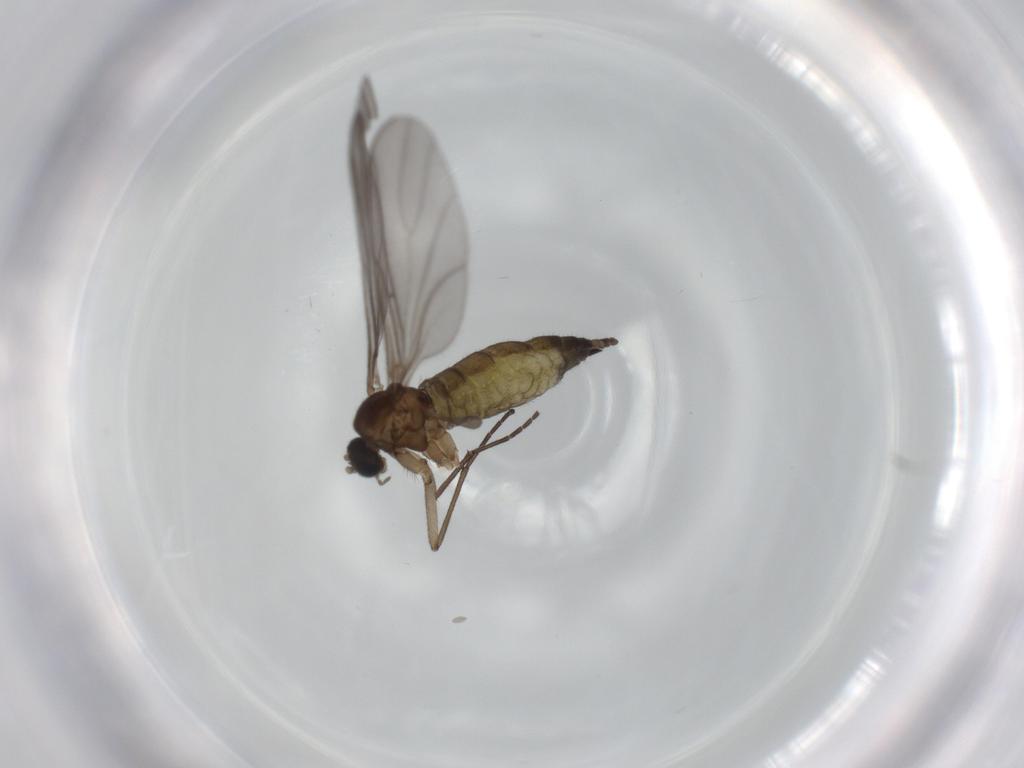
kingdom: Animalia
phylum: Arthropoda
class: Insecta
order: Diptera
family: Sciaridae
